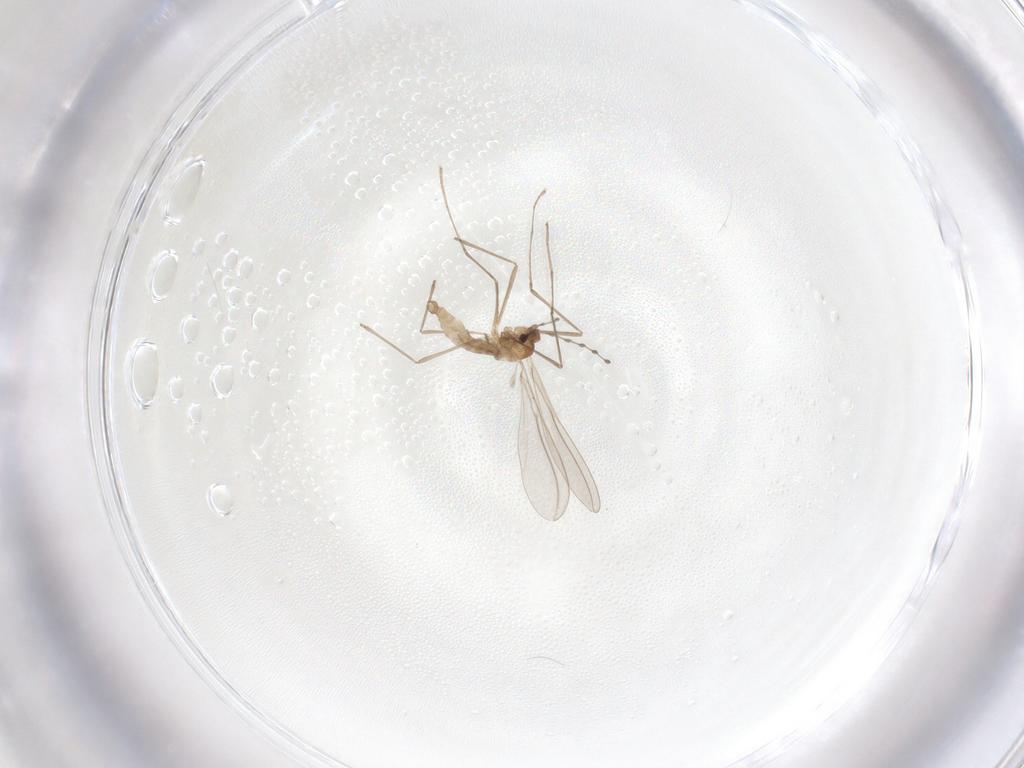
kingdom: Animalia
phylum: Arthropoda
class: Insecta
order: Diptera
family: Cecidomyiidae
